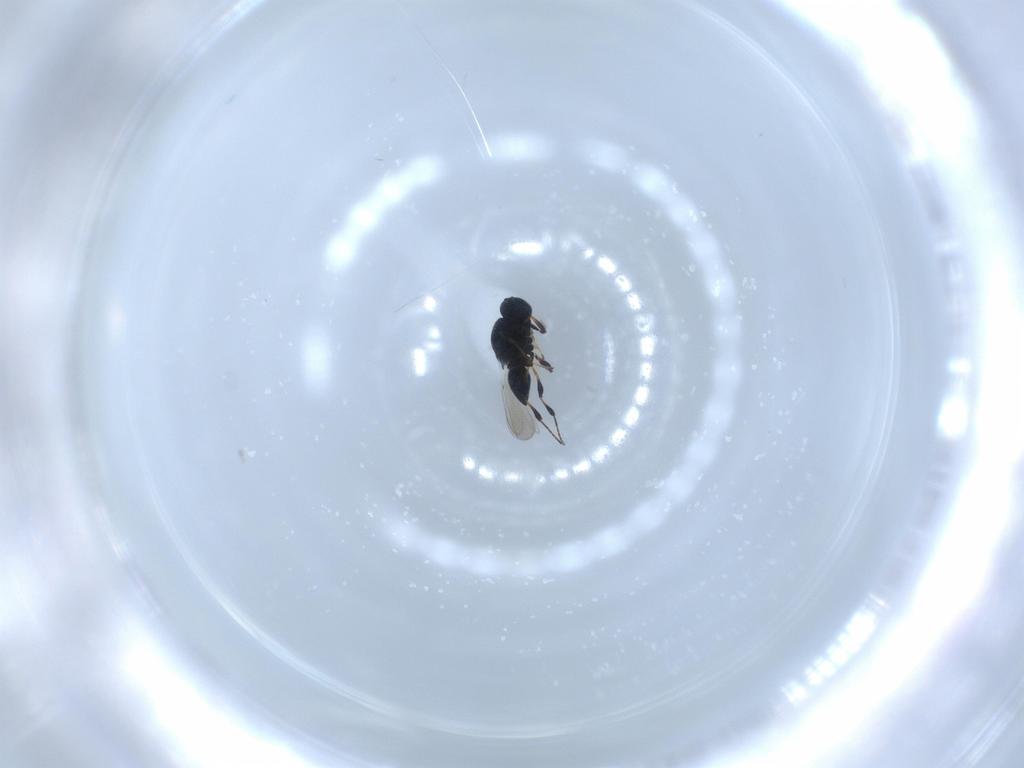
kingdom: Animalia
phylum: Arthropoda
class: Insecta
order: Hymenoptera
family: Platygastridae
